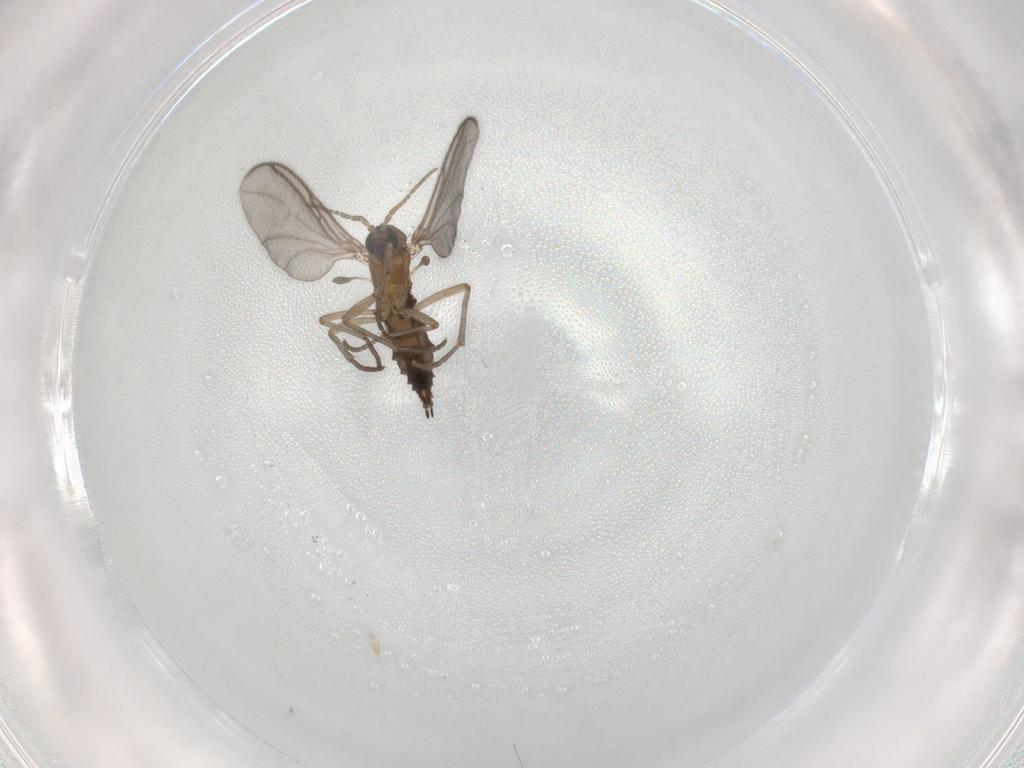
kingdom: Animalia
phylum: Arthropoda
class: Insecta
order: Diptera
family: Sciaridae
